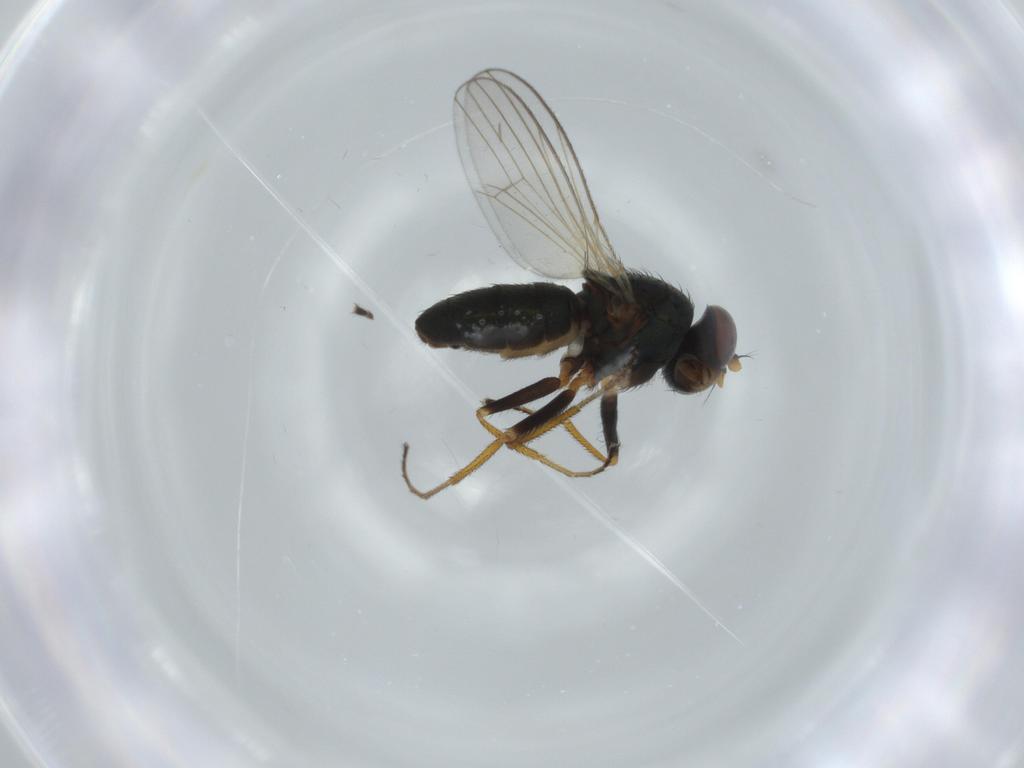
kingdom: Animalia
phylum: Arthropoda
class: Insecta
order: Diptera
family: Ephydridae
